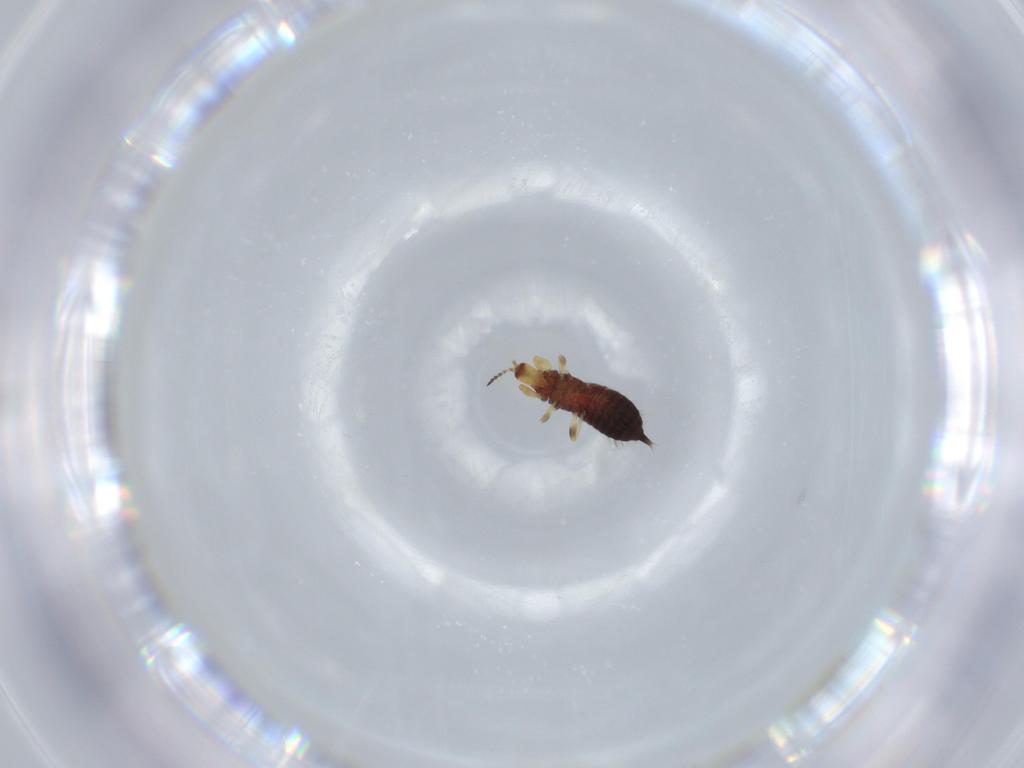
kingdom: Animalia
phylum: Arthropoda
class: Insecta
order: Thysanoptera
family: Phlaeothripidae
